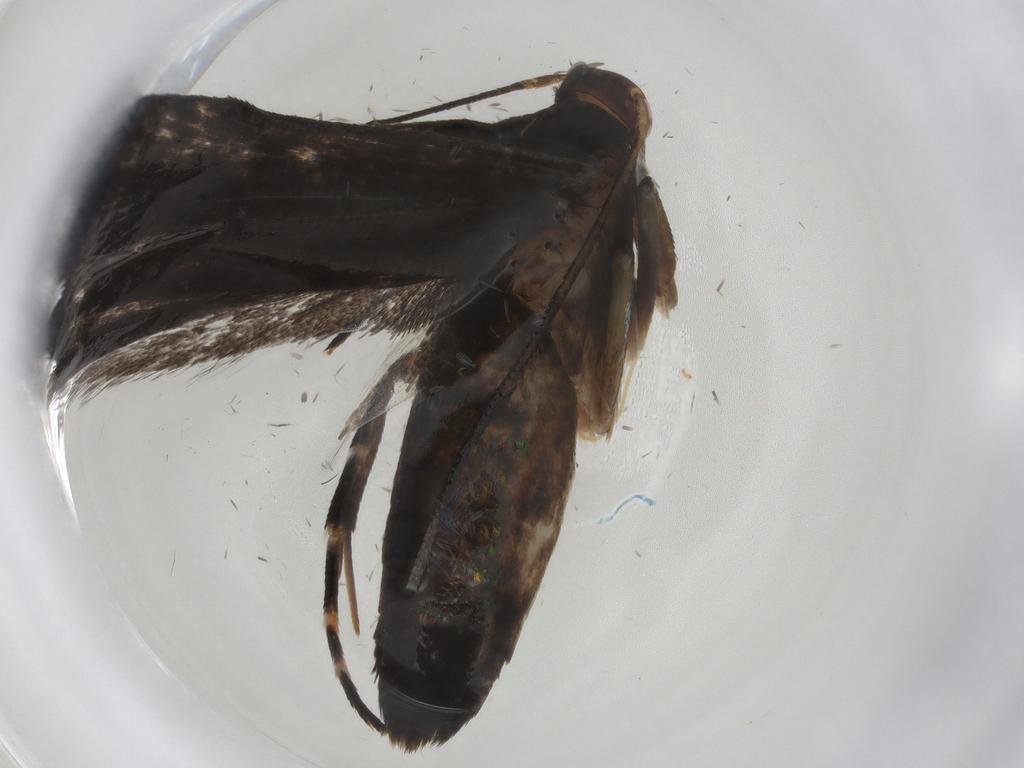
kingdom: Animalia
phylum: Arthropoda
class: Insecta
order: Lepidoptera
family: Gelechiidae
